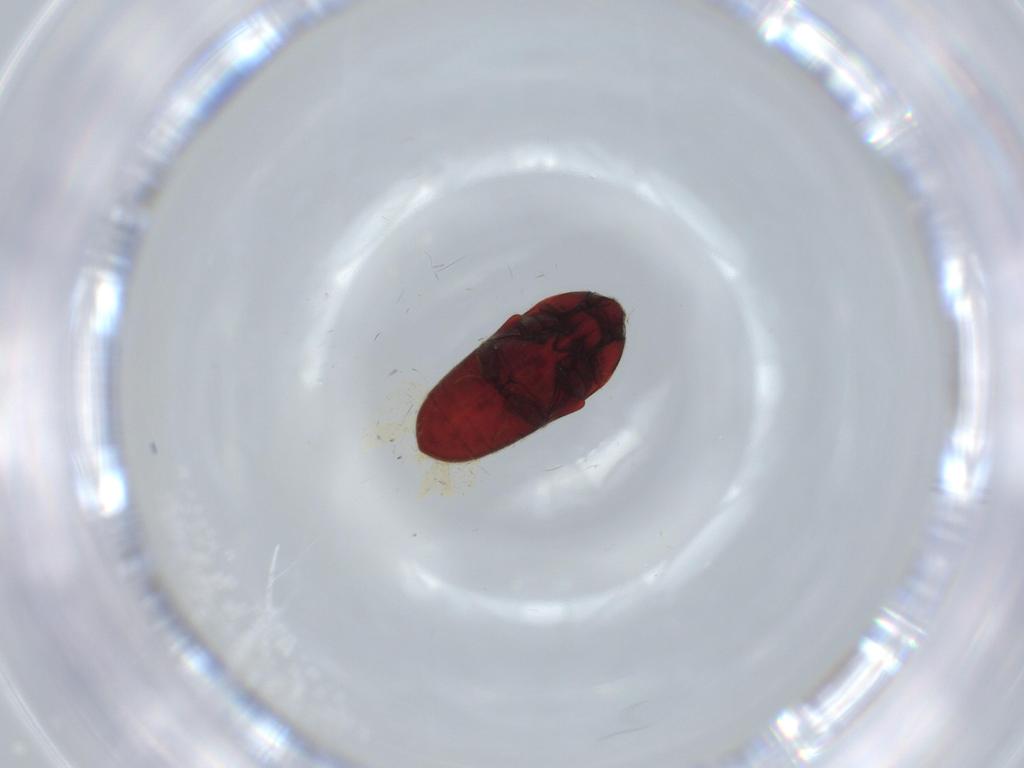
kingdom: Animalia
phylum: Arthropoda
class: Insecta
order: Coleoptera
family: Throscidae
